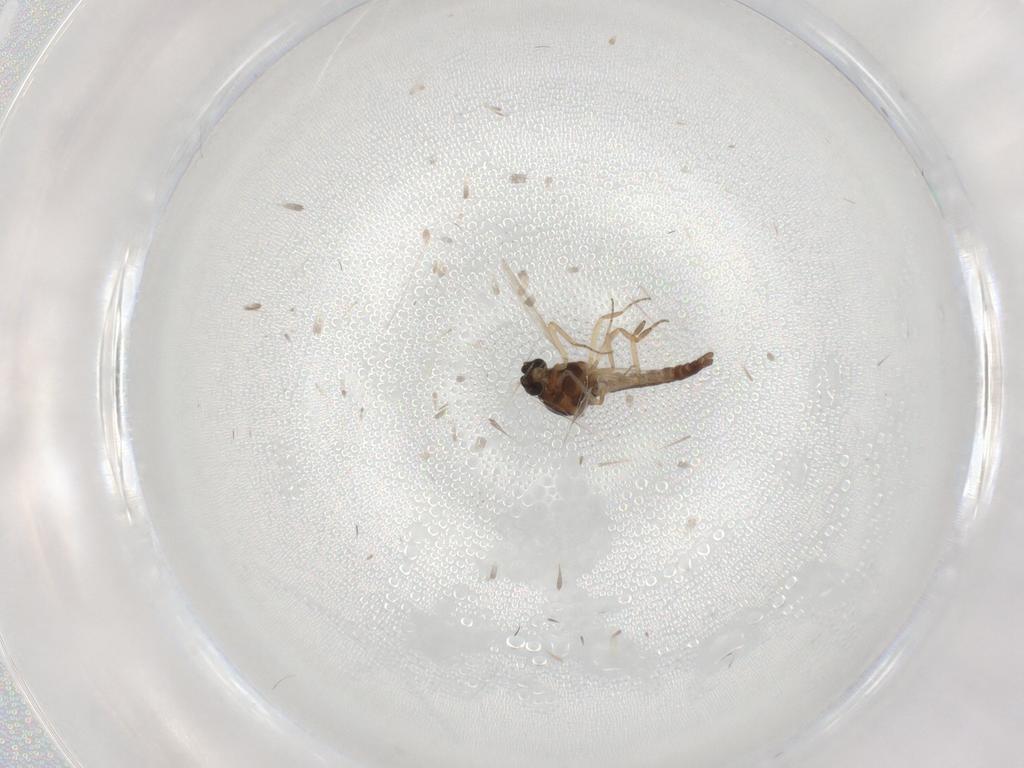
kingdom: Animalia
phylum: Arthropoda
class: Insecta
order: Diptera
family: Ceratopogonidae
